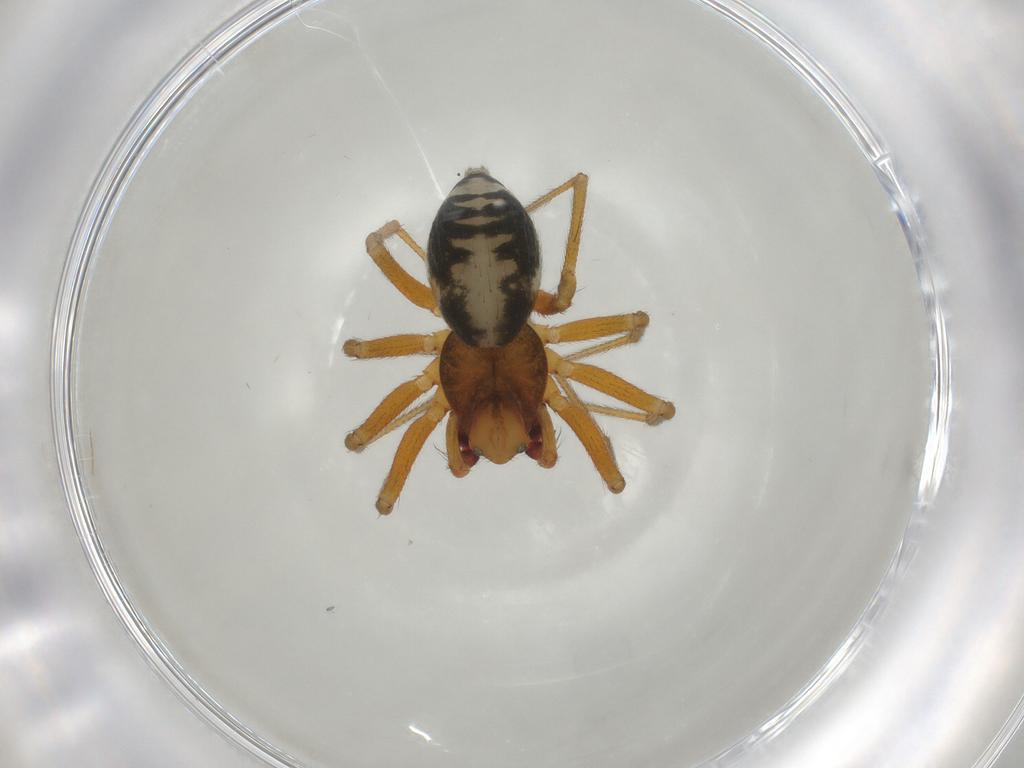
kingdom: Animalia
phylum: Arthropoda
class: Arachnida
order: Araneae
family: Linyphiidae
